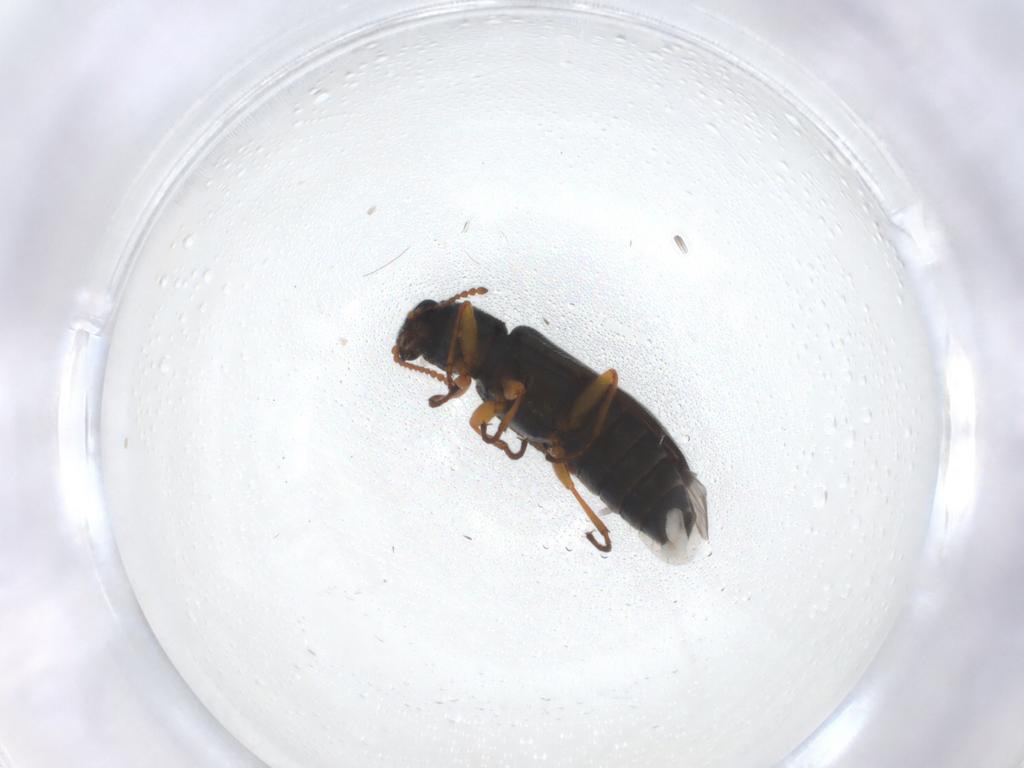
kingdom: Animalia
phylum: Arthropoda
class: Insecta
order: Coleoptera
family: Melyridae
